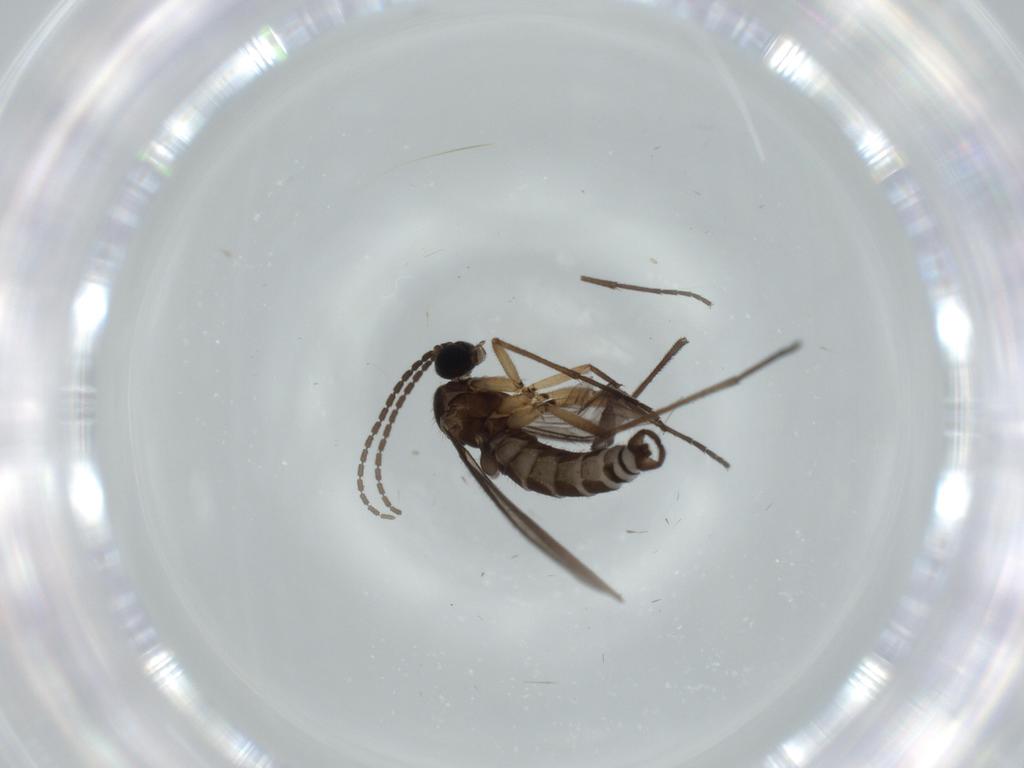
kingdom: Animalia
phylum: Arthropoda
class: Insecta
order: Diptera
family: Sciaridae
